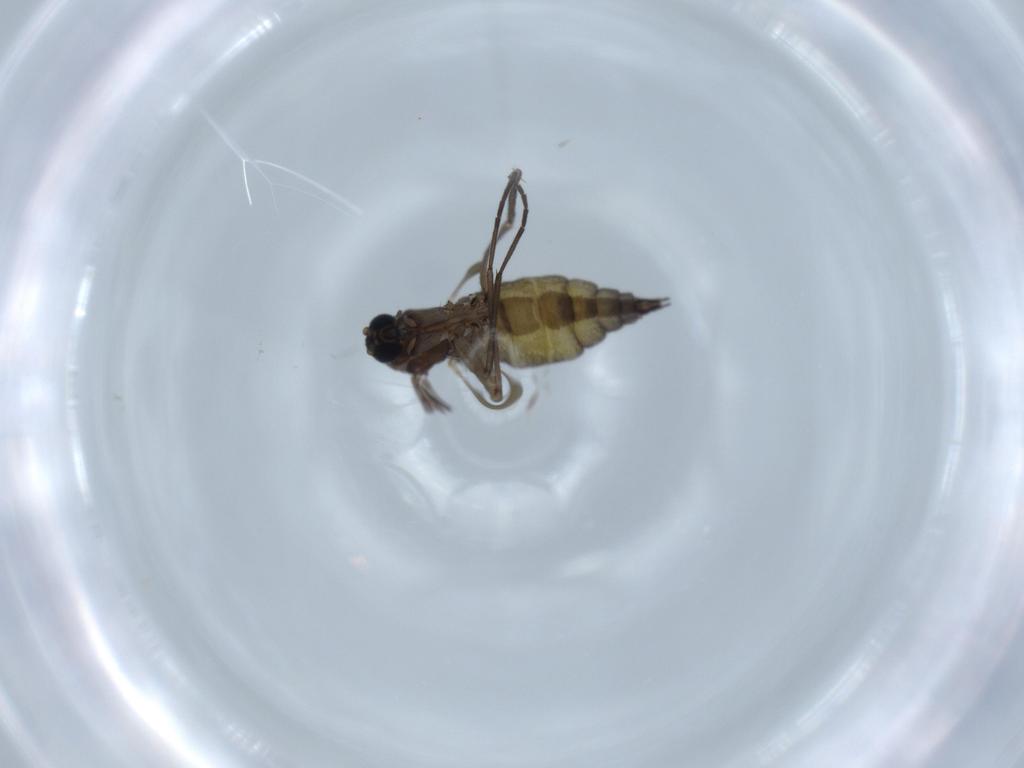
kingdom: Animalia
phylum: Arthropoda
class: Insecta
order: Diptera
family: Sciaridae
